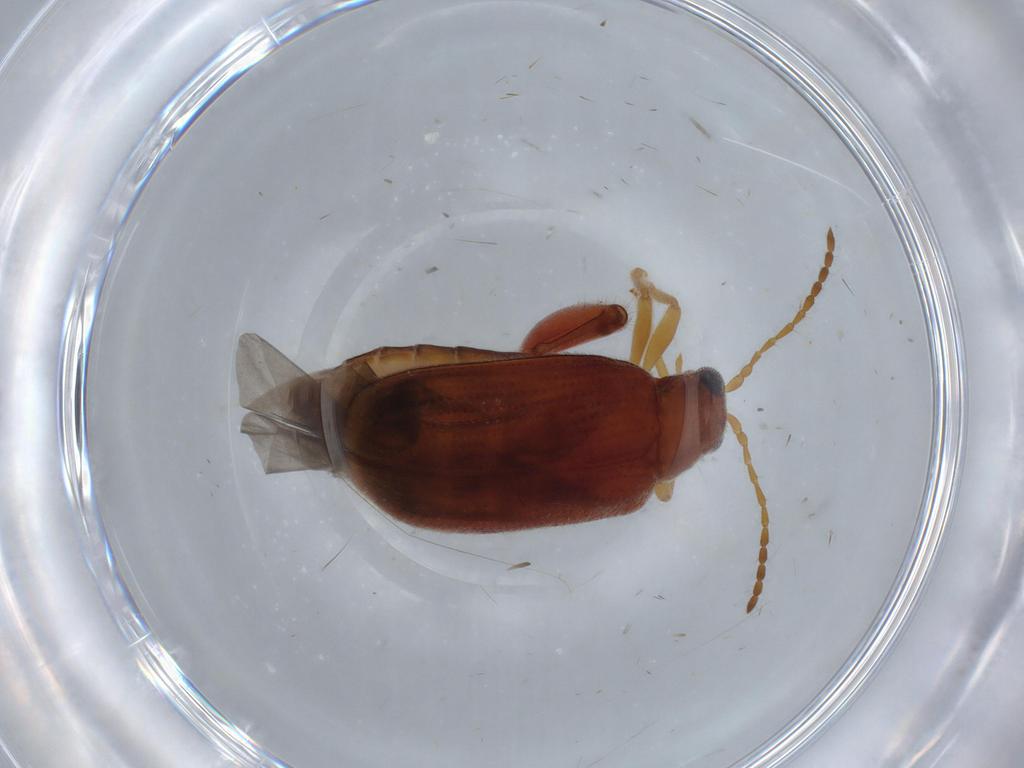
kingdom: Animalia
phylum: Arthropoda
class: Insecta
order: Coleoptera
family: Chrysomelidae
